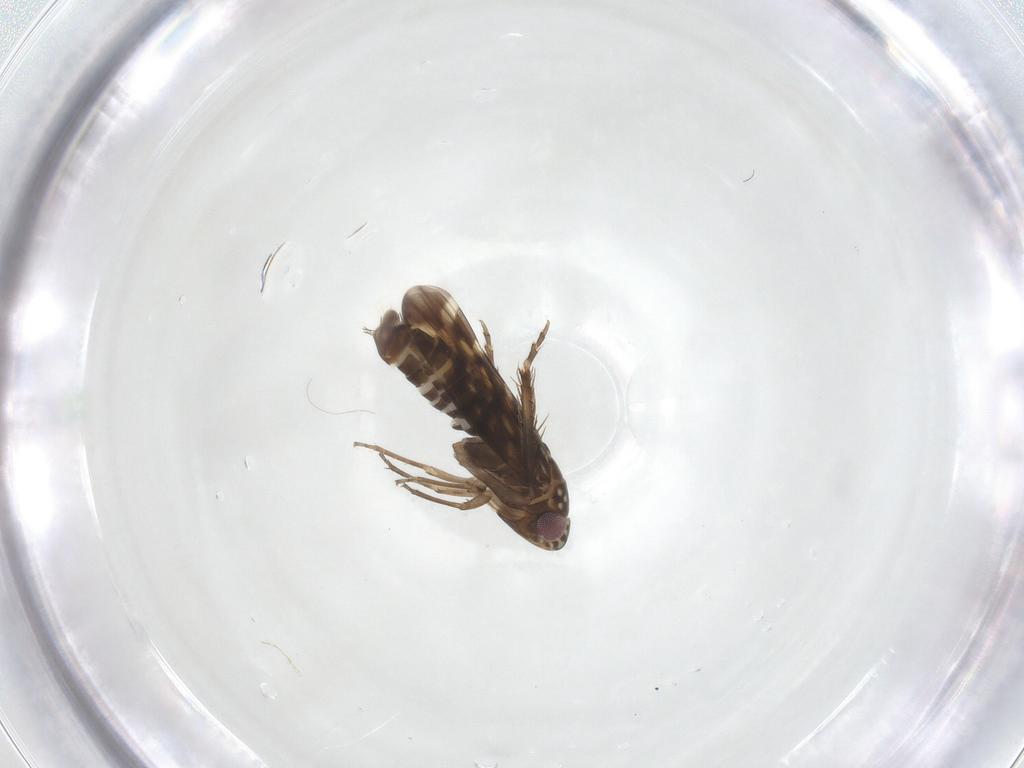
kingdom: Animalia
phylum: Arthropoda
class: Insecta
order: Hemiptera
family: Cicadellidae
